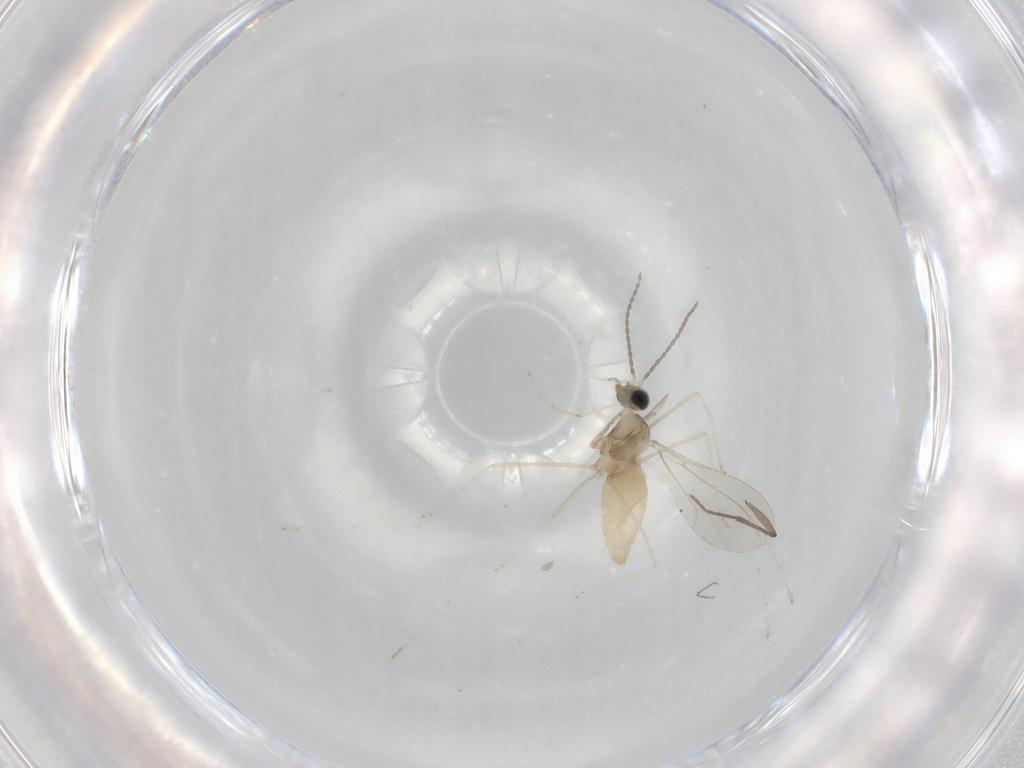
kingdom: Animalia
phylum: Arthropoda
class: Insecta
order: Diptera
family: Cecidomyiidae
